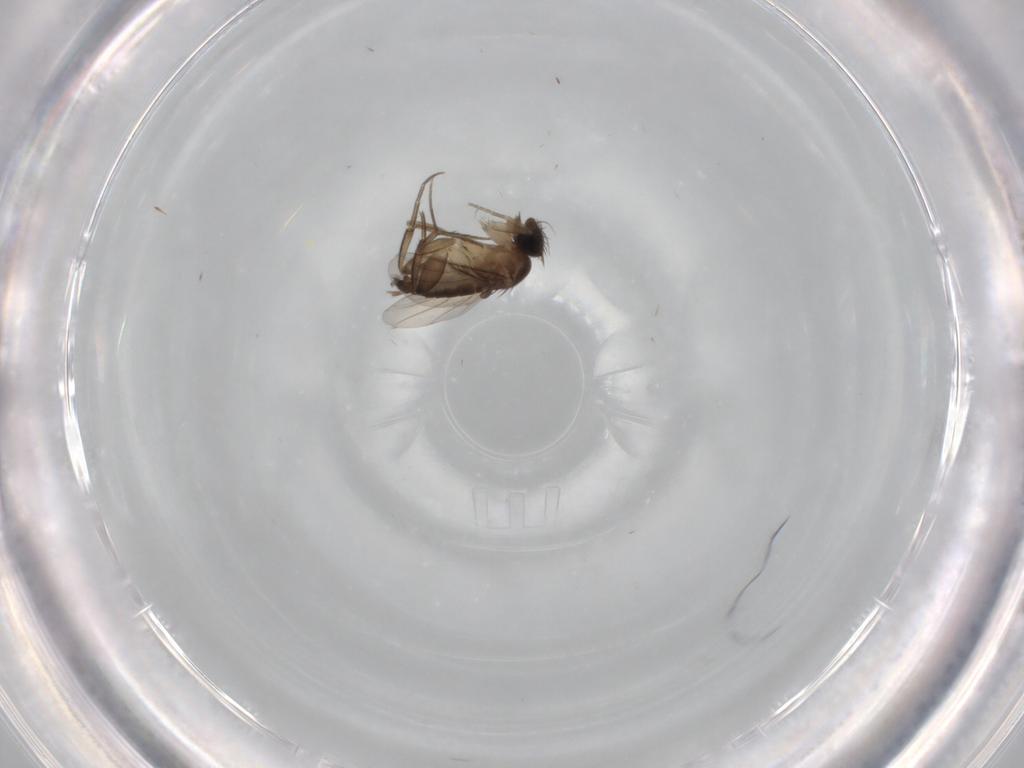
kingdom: Animalia
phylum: Arthropoda
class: Insecta
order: Diptera
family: Phoridae
